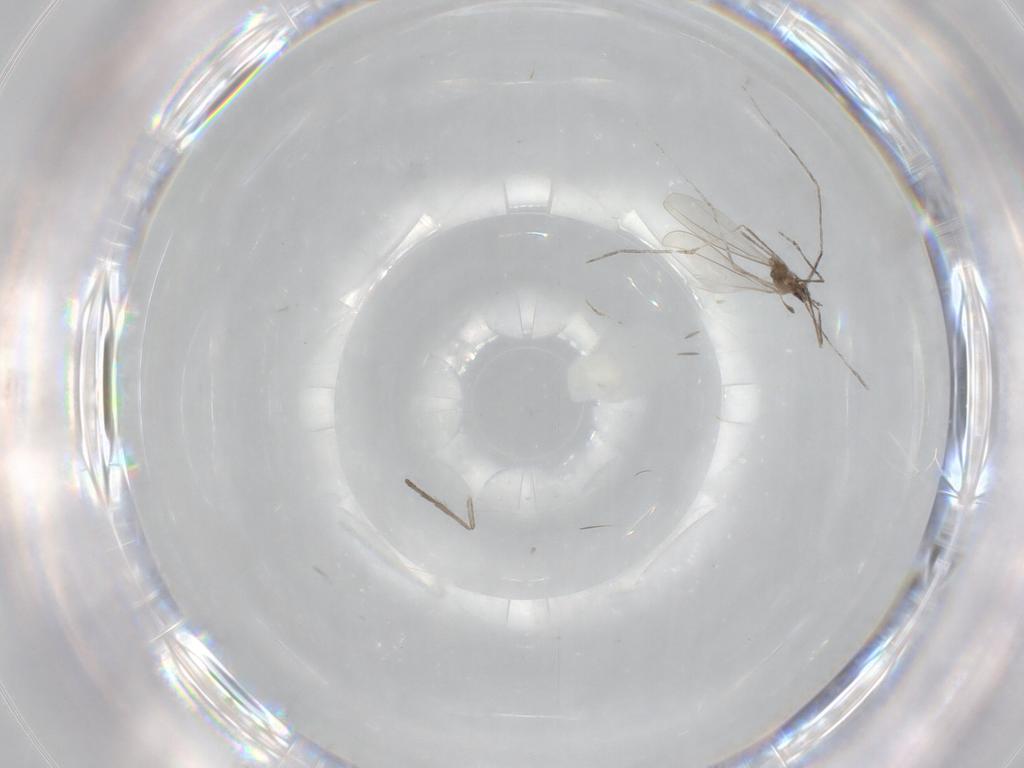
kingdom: Animalia
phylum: Arthropoda
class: Insecta
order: Diptera
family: Cecidomyiidae
